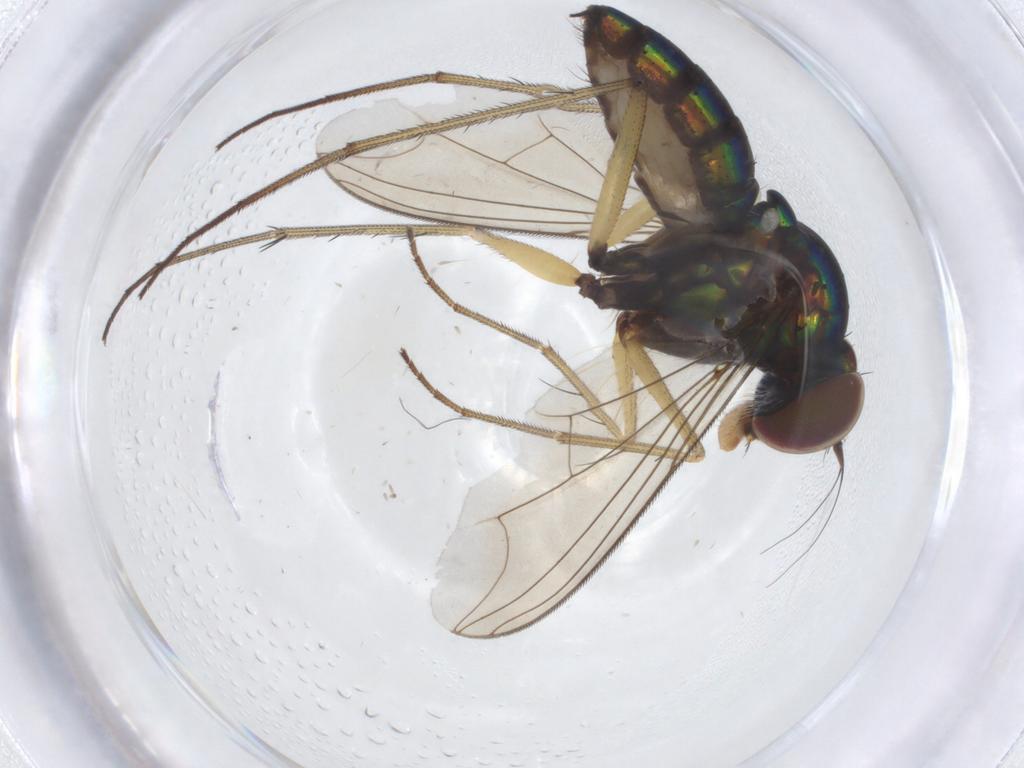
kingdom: Animalia
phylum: Arthropoda
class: Insecta
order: Diptera
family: Dolichopodidae
